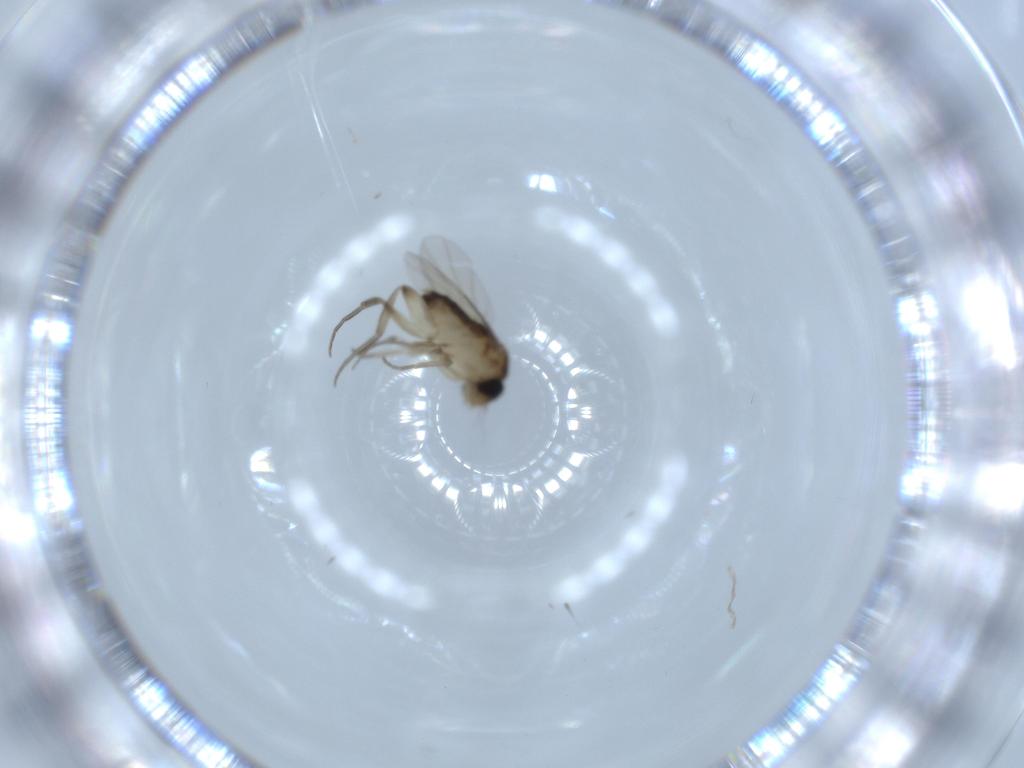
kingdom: Animalia
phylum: Arthropoda
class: Insecta
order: Diptera
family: Phoridae
